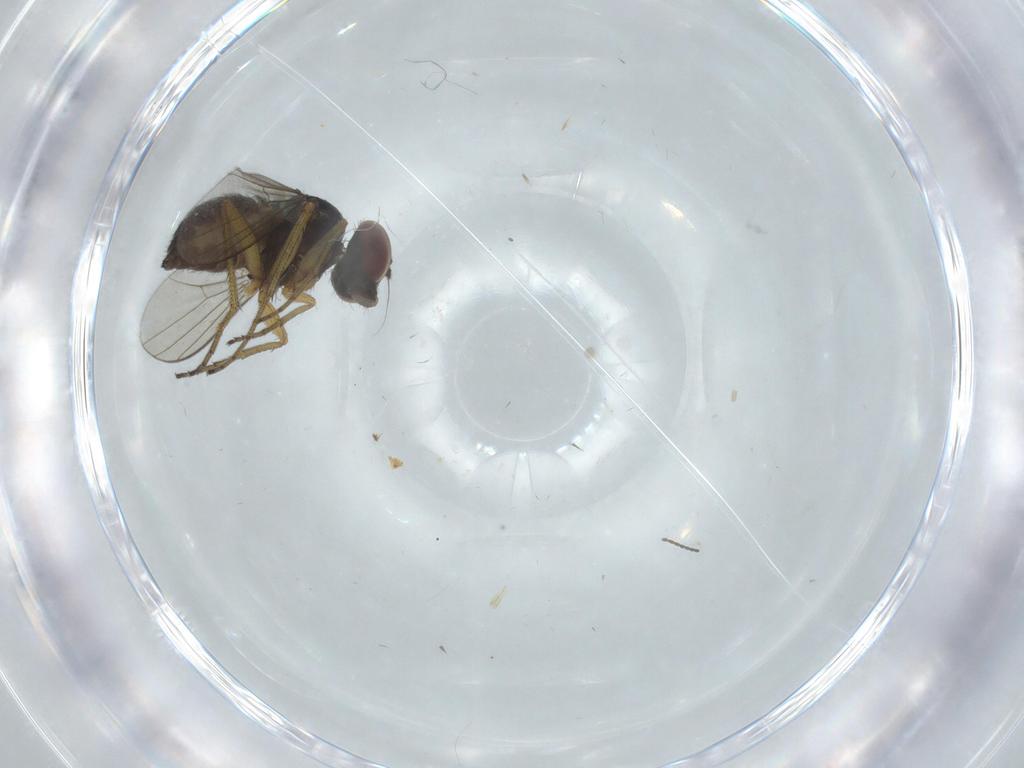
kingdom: Animalia
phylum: Arthropoda
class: Insecta
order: Diptera
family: Dolichopodidae
